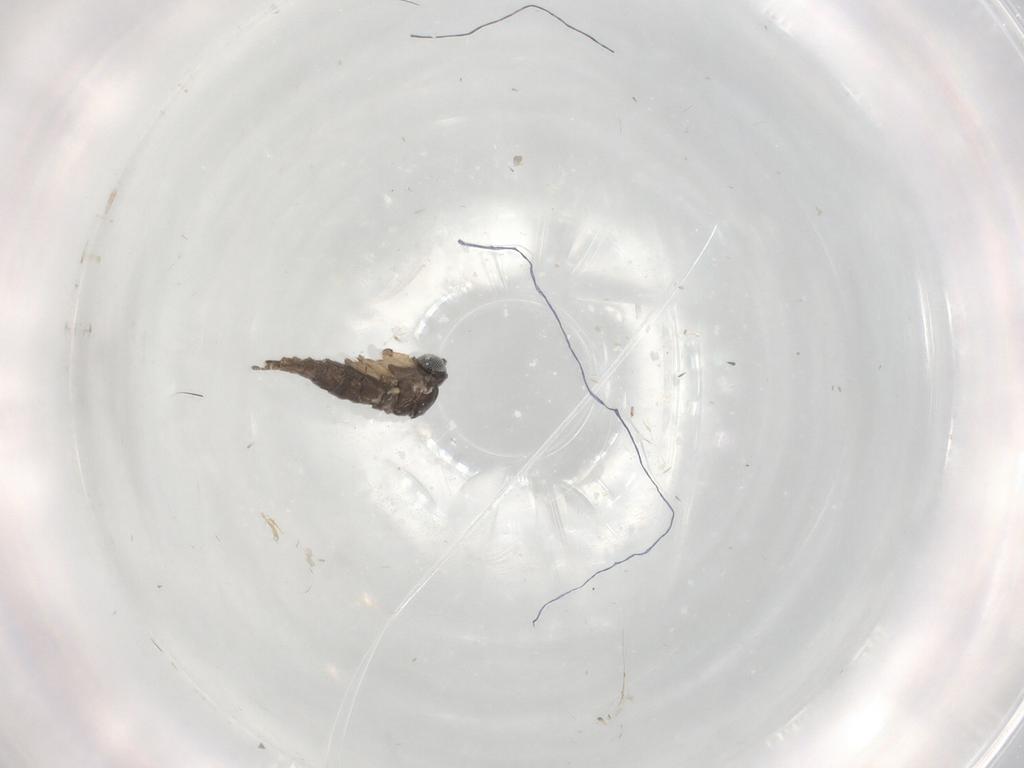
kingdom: Animalia
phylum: Arthropoda
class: Insecta
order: Diptera
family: Sciaridae
